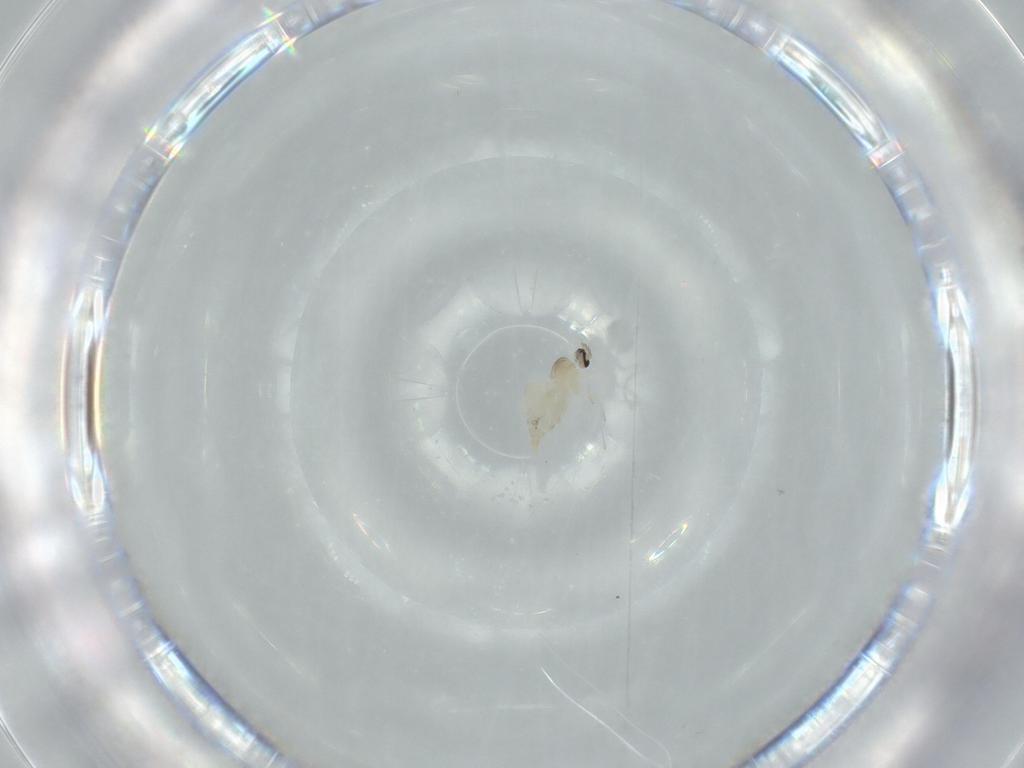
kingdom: Animalia
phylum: Arthropoda
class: Insecta
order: Diptera
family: Cecidomyiidae
